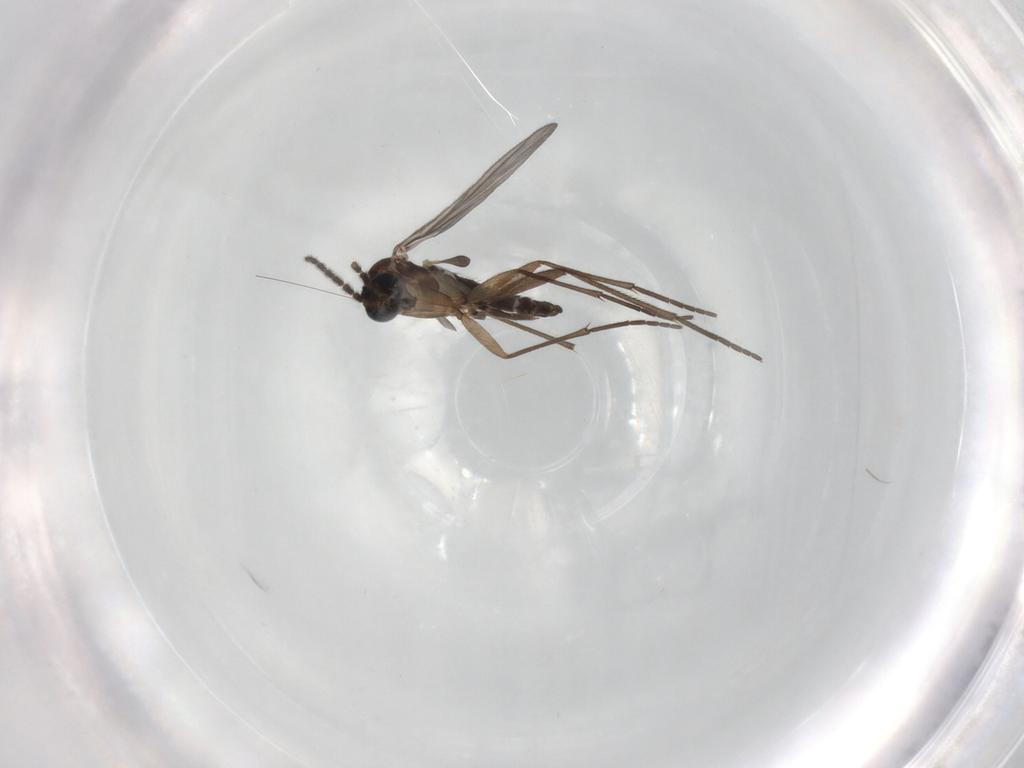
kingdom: Animalia
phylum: Arthropoda
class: Insecta
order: Diptera
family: Sciaridae
